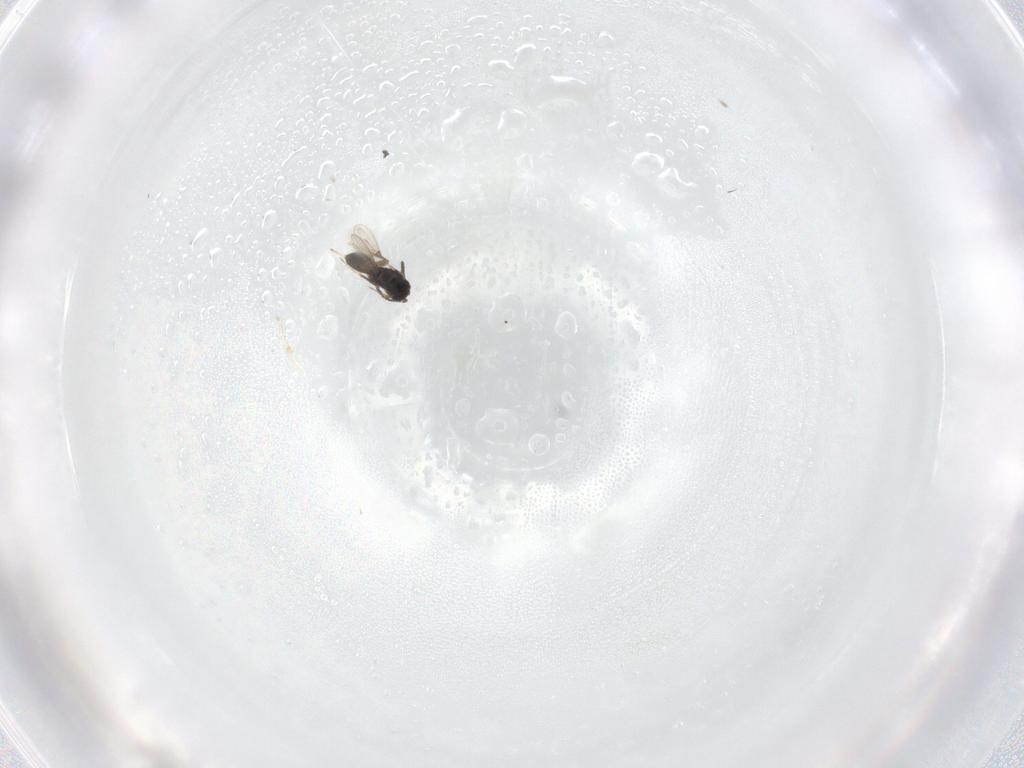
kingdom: Animalia
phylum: Arthropoda
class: Insecta
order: Hymenoptera
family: Scelionidae
